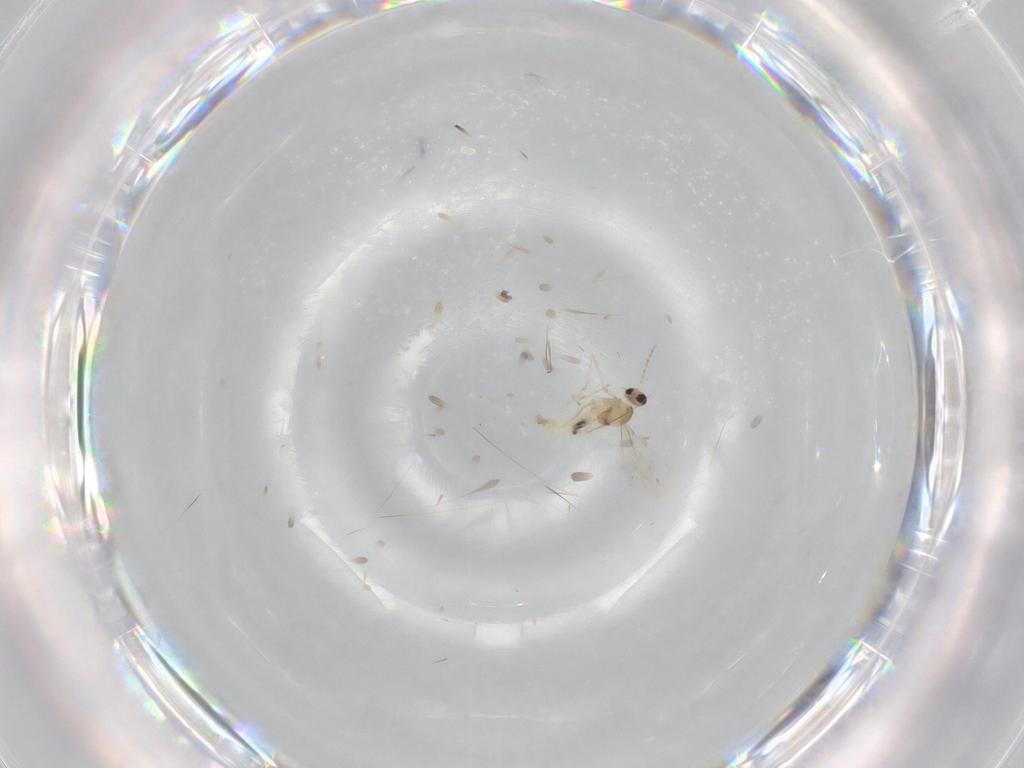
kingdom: Animalia
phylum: Arthropoda
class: Insecta
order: Diptera
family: Cecidomyiidae
